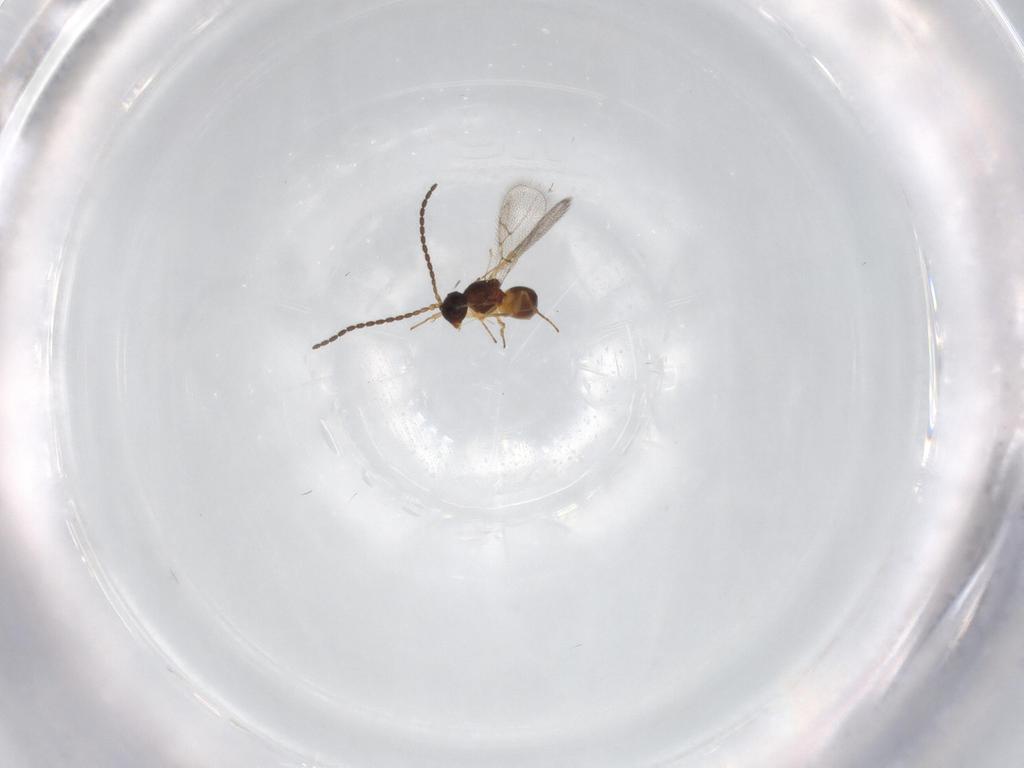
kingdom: Animalia
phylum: Arthropoda
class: Insecta
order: Hymenoptera
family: Figitidae
